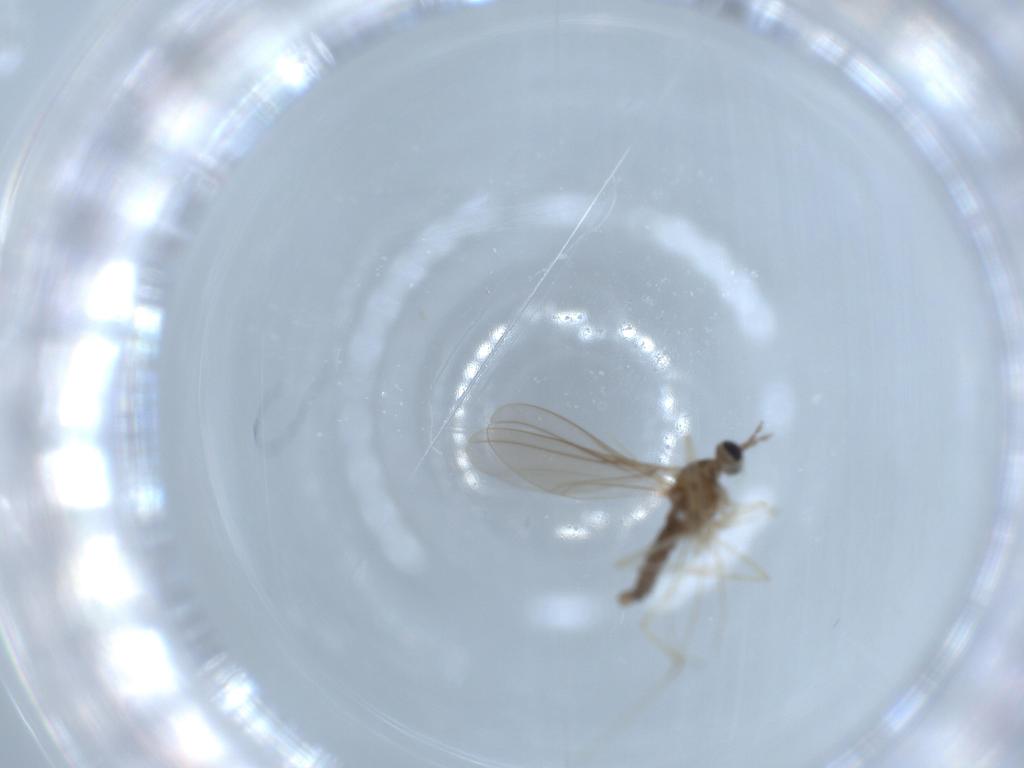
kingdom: Animalia
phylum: Arthropoda
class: Insecta
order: Diptera
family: Cecidomyiidae
